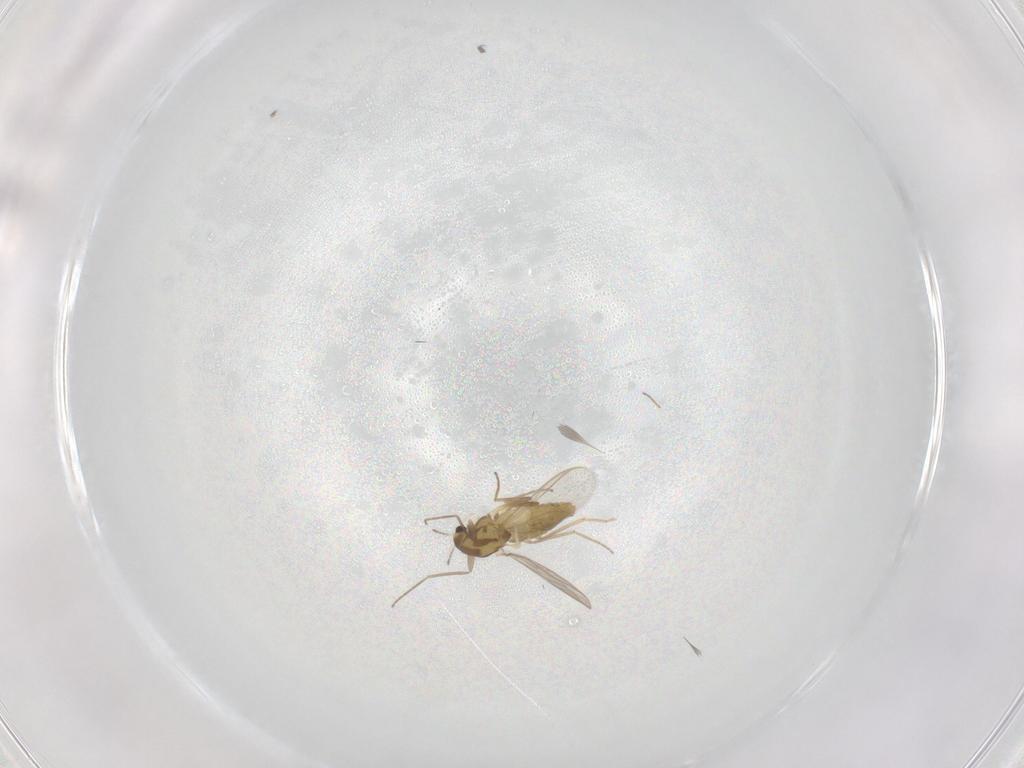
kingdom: Animalia
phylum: Arthropoda
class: Insecta
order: Diptera
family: Chironomidae
